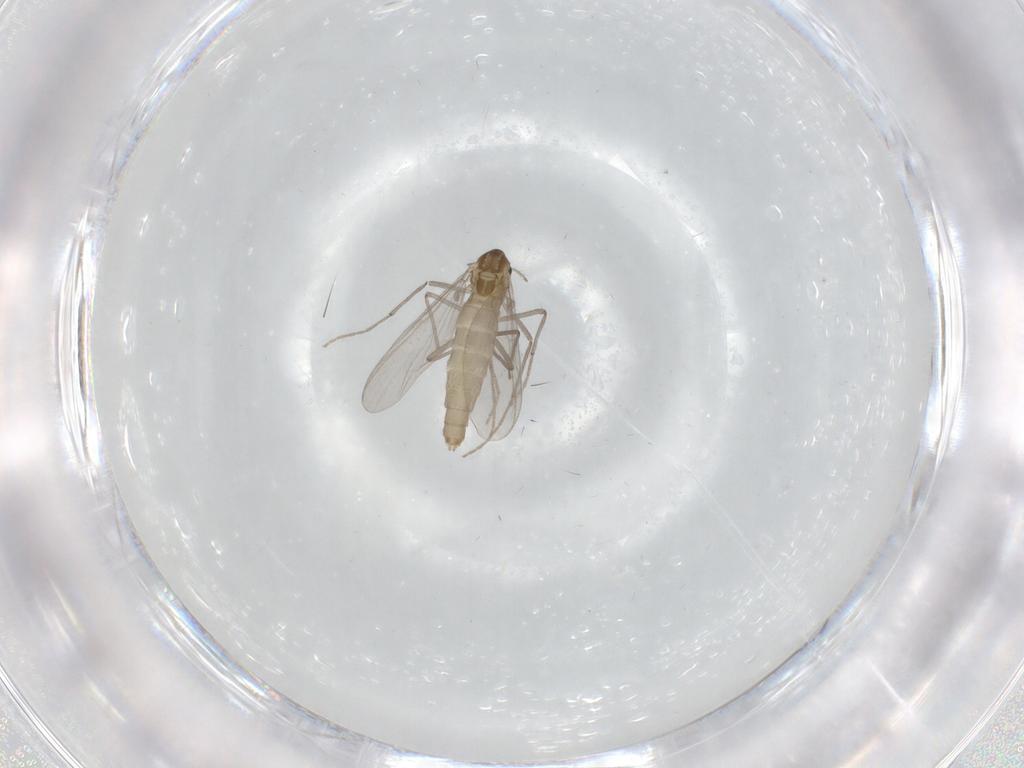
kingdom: Animalia
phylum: Arthropoda
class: Insecta
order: Diptera
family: Chironomidae
